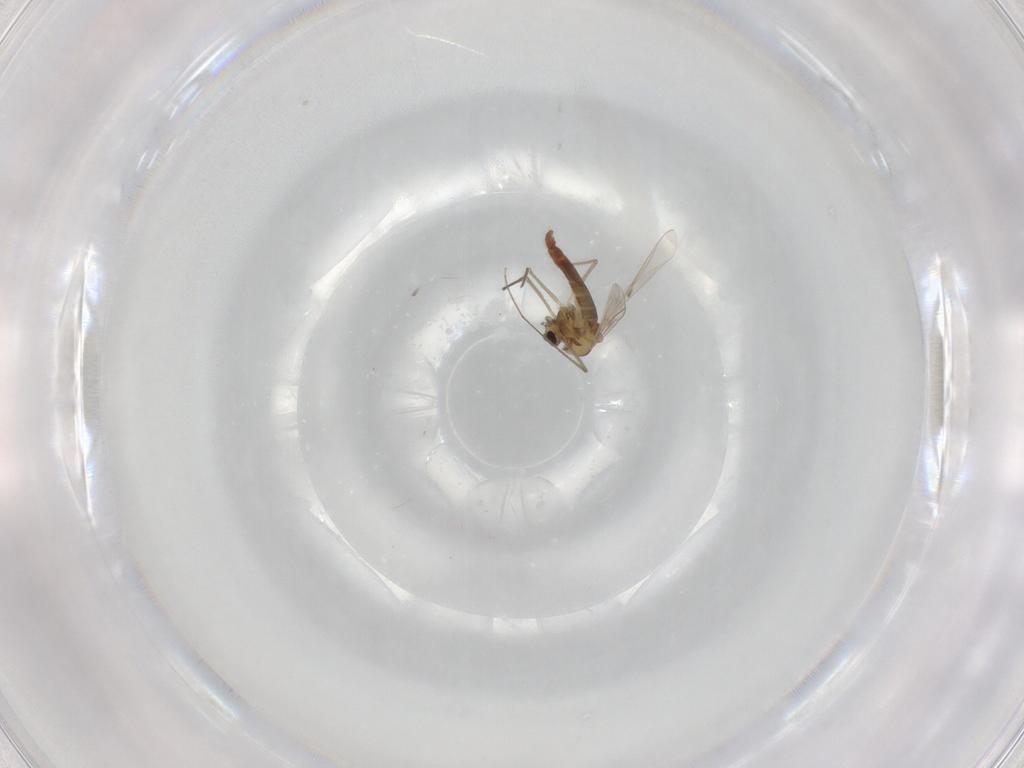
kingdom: Animalia
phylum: Arthropoda
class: Insecta
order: Diptera
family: Chironomidae
